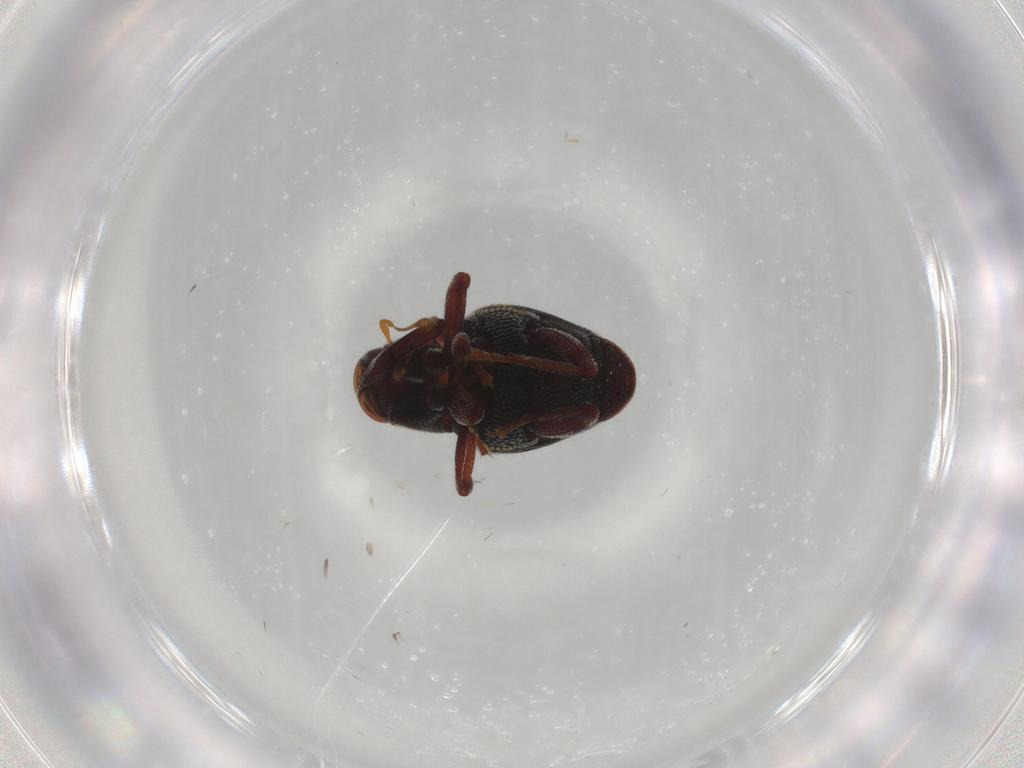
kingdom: Animalia
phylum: Arthropoda
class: Insecta
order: Coleoptera
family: Curculionidae
